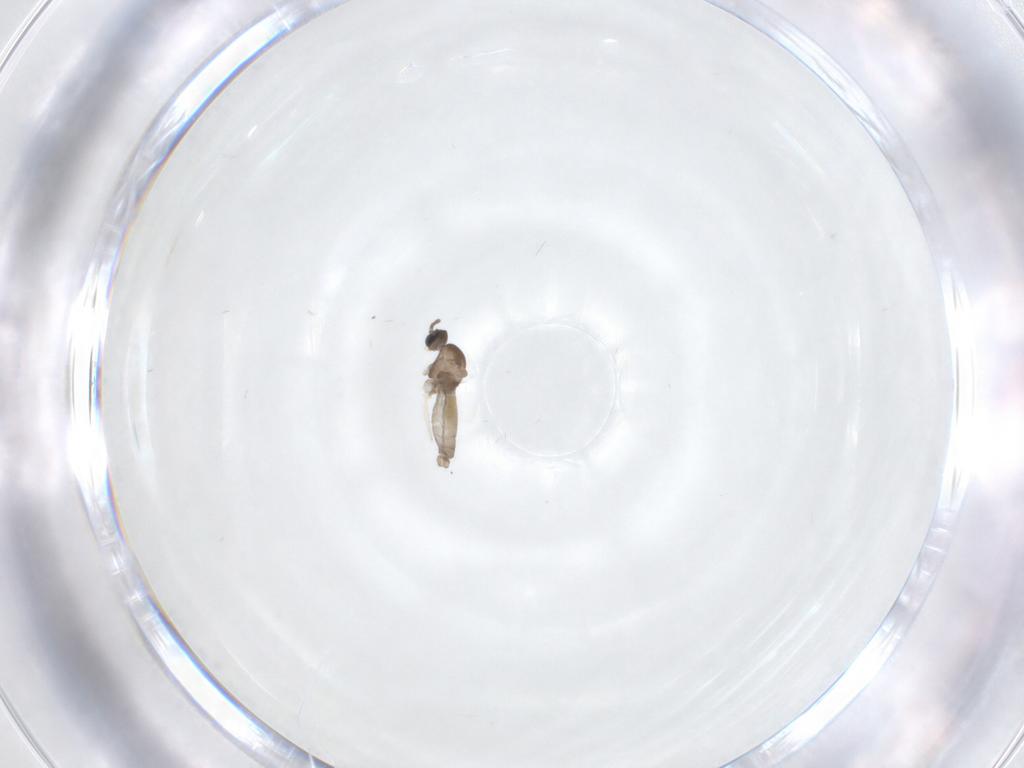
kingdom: Animalia
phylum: Arthropoda
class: Insecta
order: Diptera
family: Cecidomyiidae
